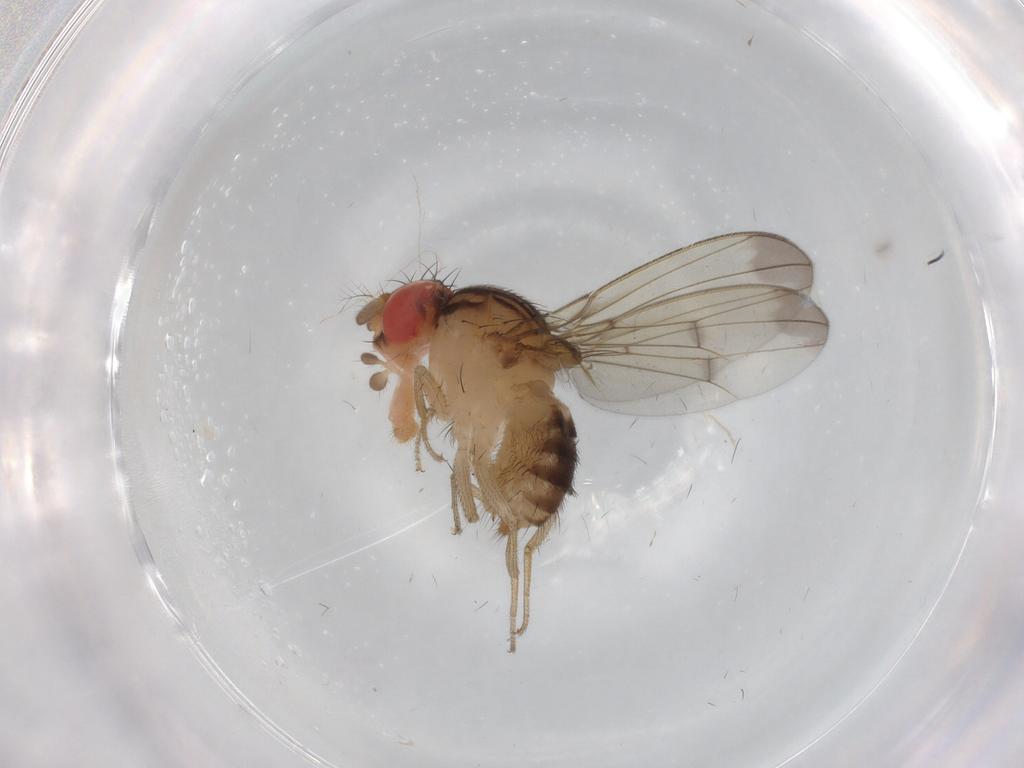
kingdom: Animalia
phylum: Arthropoda
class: Insecta
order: Diptera
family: Drosophilidae
